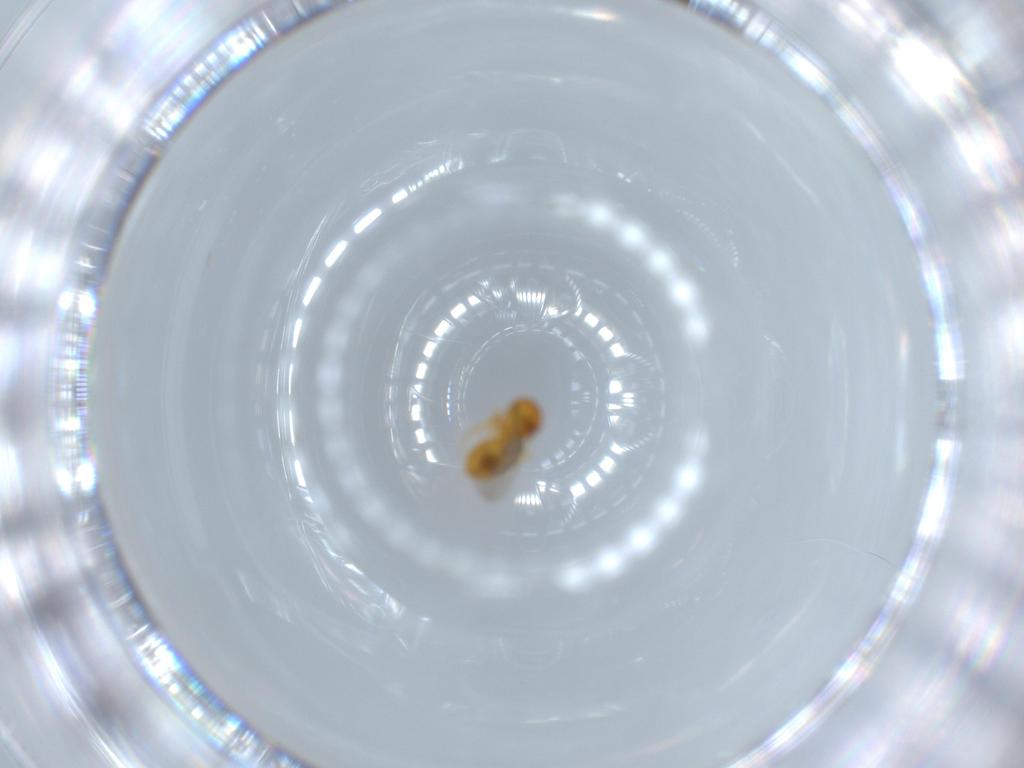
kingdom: Animalia
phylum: Arthropoda
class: Insecta
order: Hymenoptera
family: Scelionidae
